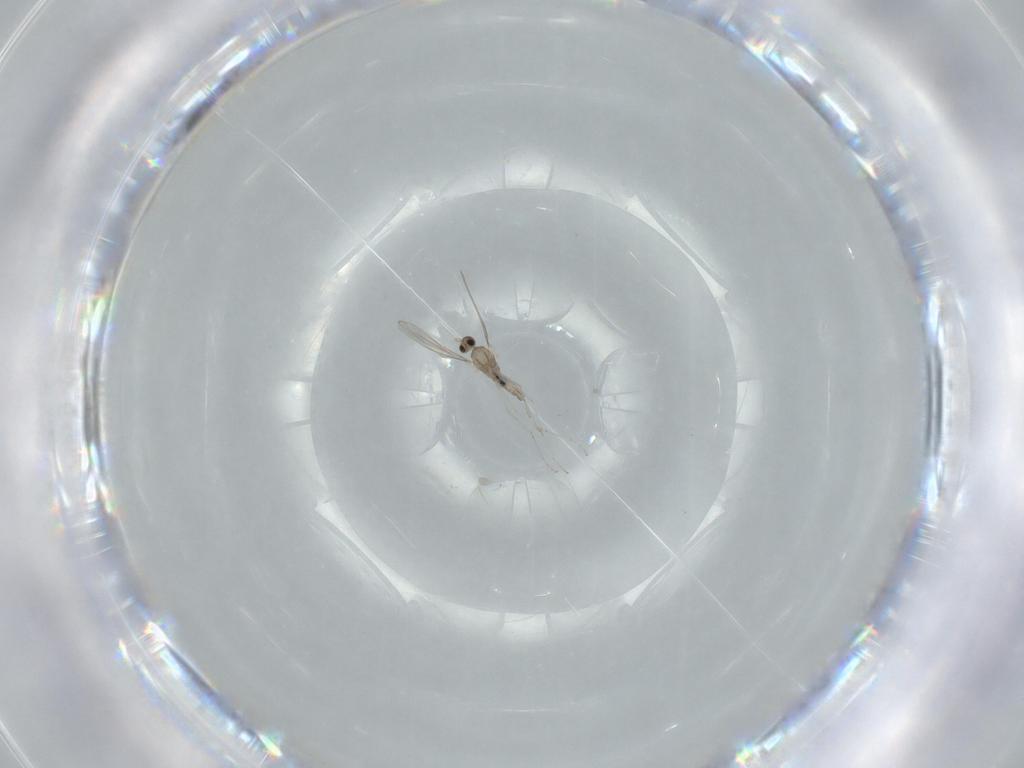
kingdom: Animalia
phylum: Arthropoda
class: Insecta
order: Diptera
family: Cecidomyiidae
